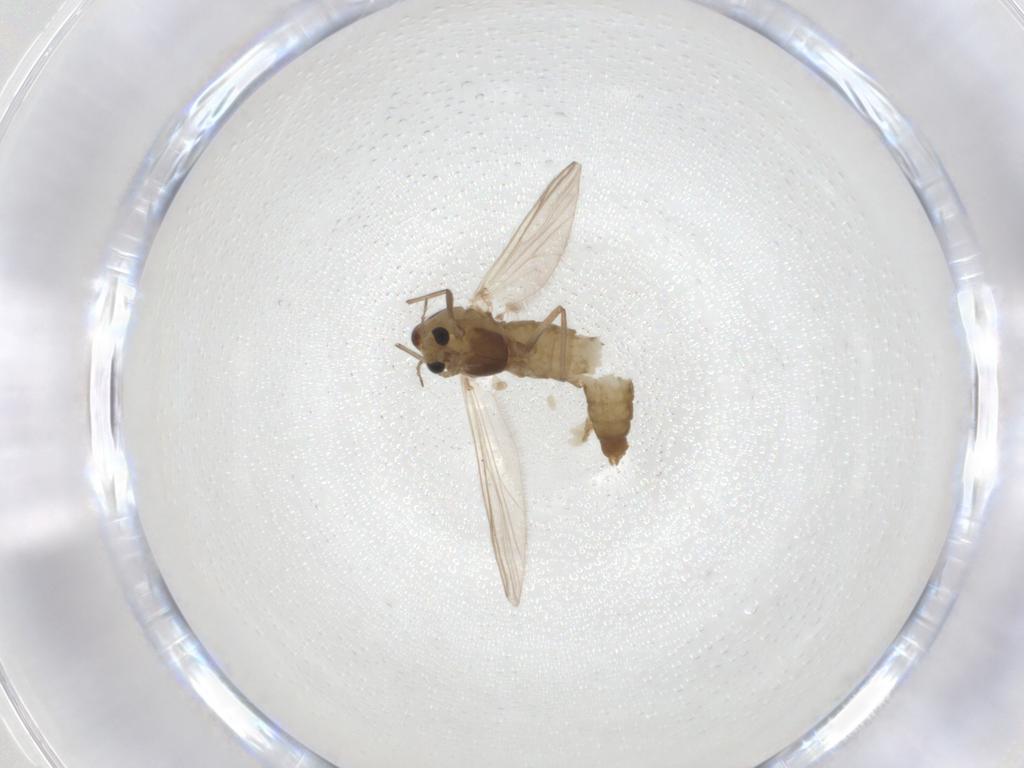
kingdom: Animalia
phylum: Arthropoda
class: Insecta
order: Diptera
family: Chironomidae
